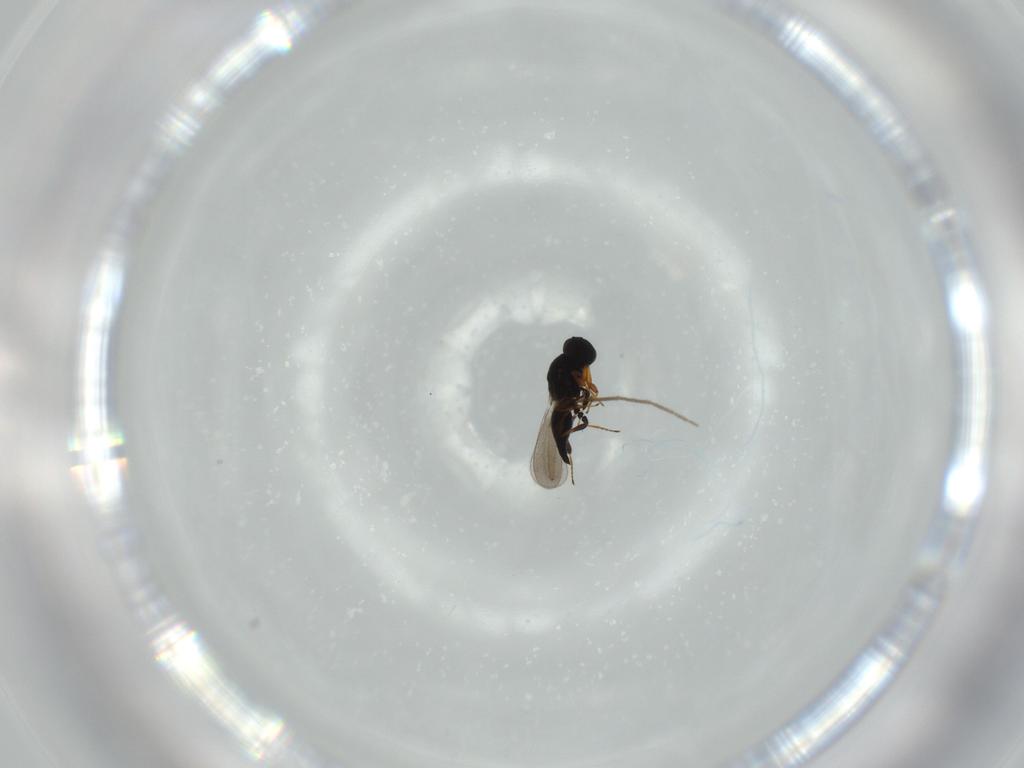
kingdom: Animalia
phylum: Arthropoda
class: Insecta
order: Hymenoptera
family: Platygastridae
